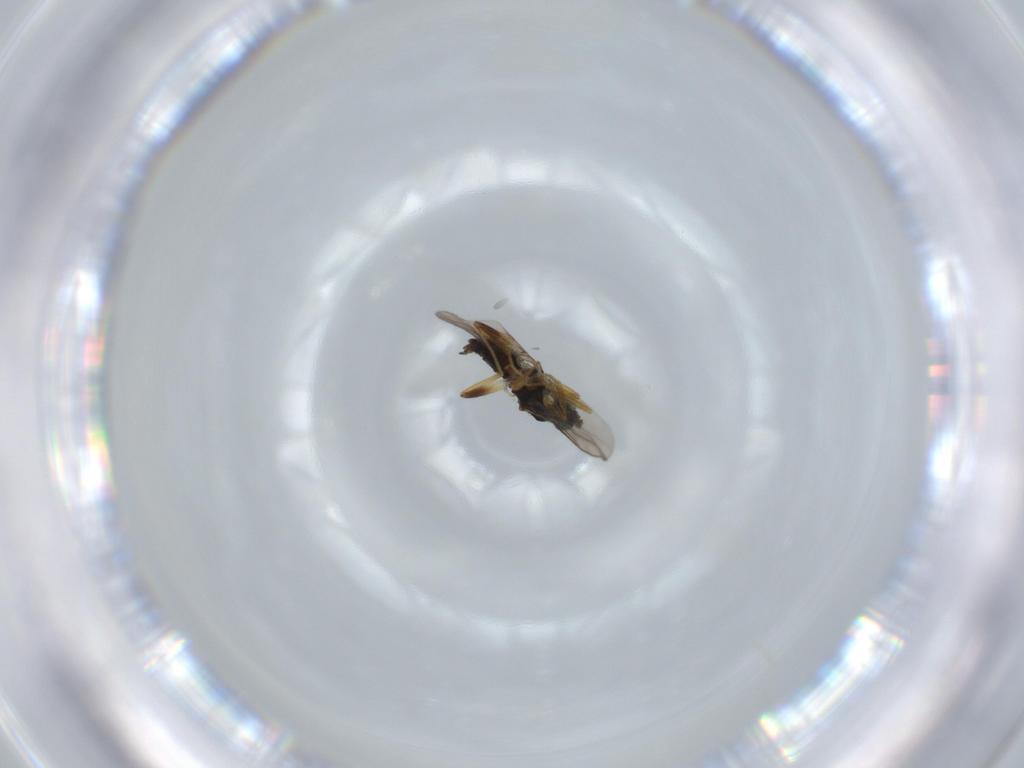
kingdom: Animalia
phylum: Arthropoda
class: Insecta
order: Diptera
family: Hybotidae
